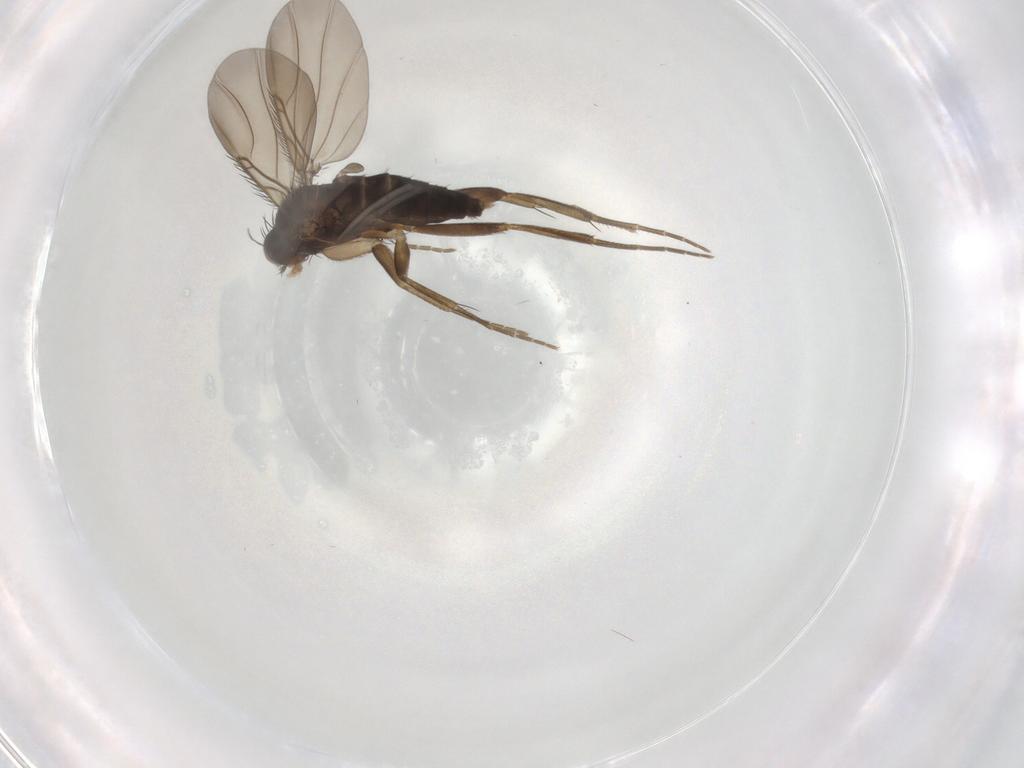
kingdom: Animalia
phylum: Arthropoda
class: Insecta
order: Diptera
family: Phoridae
